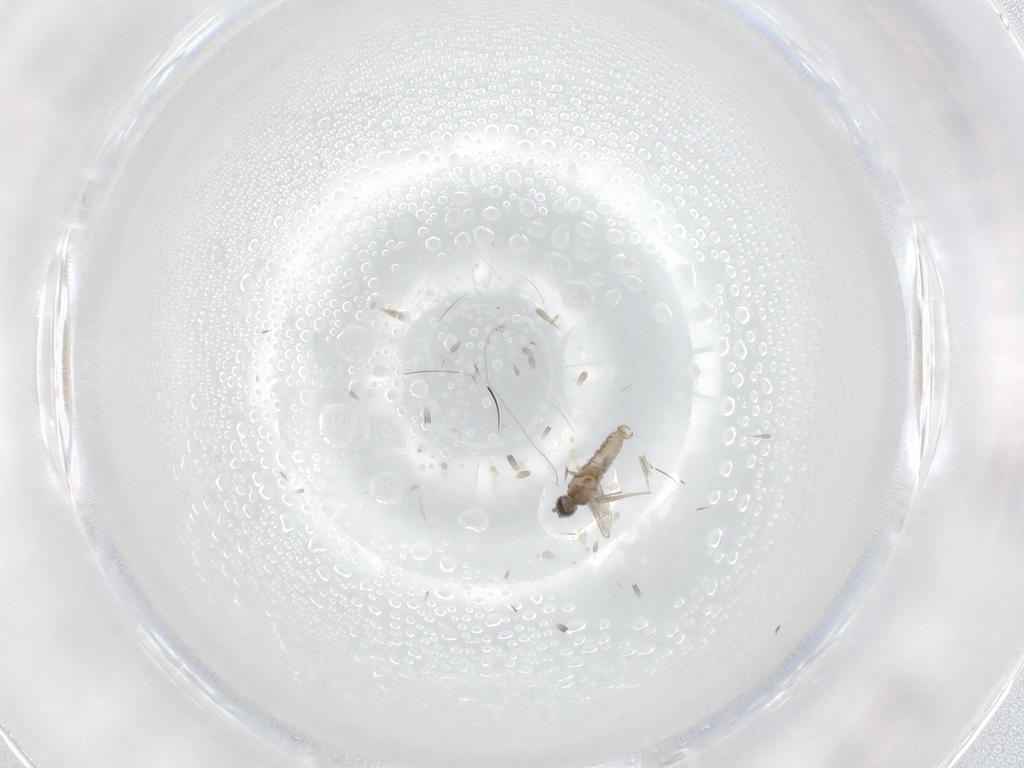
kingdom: Animalia
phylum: Arthropoda
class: Insecta
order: Diptera
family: Cecidomyiidae
